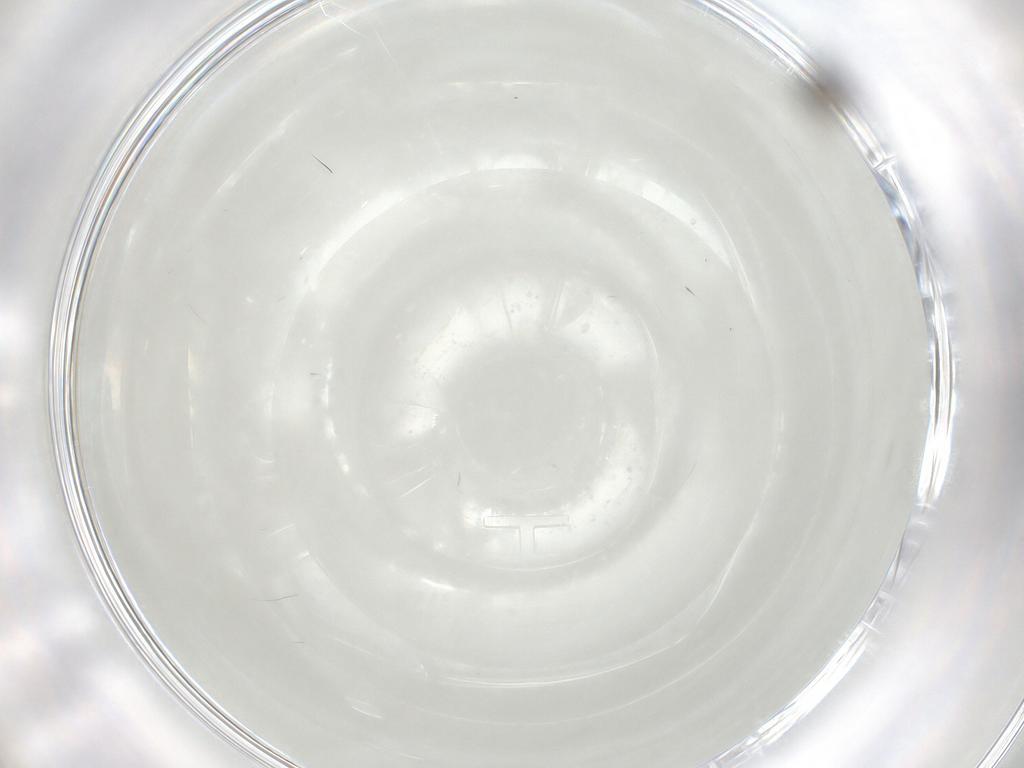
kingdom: Animalia
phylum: Arthropoda
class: Insecta
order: Hymenoptera
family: Scelionidae
